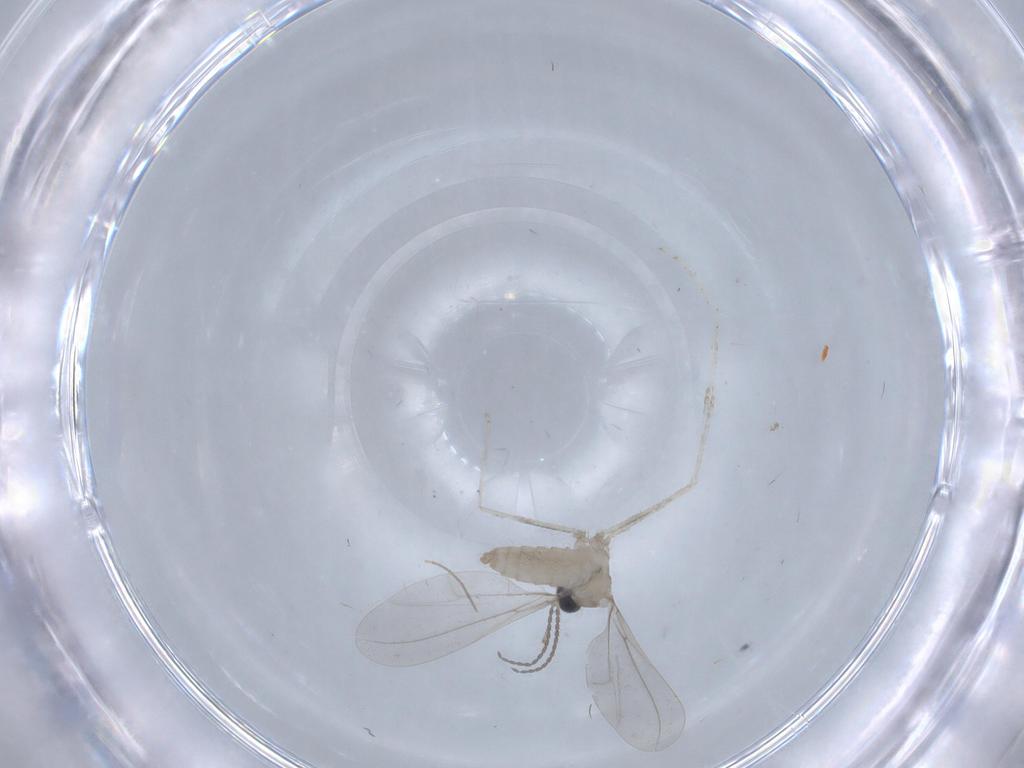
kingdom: Animalia
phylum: Arthropoda
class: Insecta
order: Diptera
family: Cecidomyiidae
